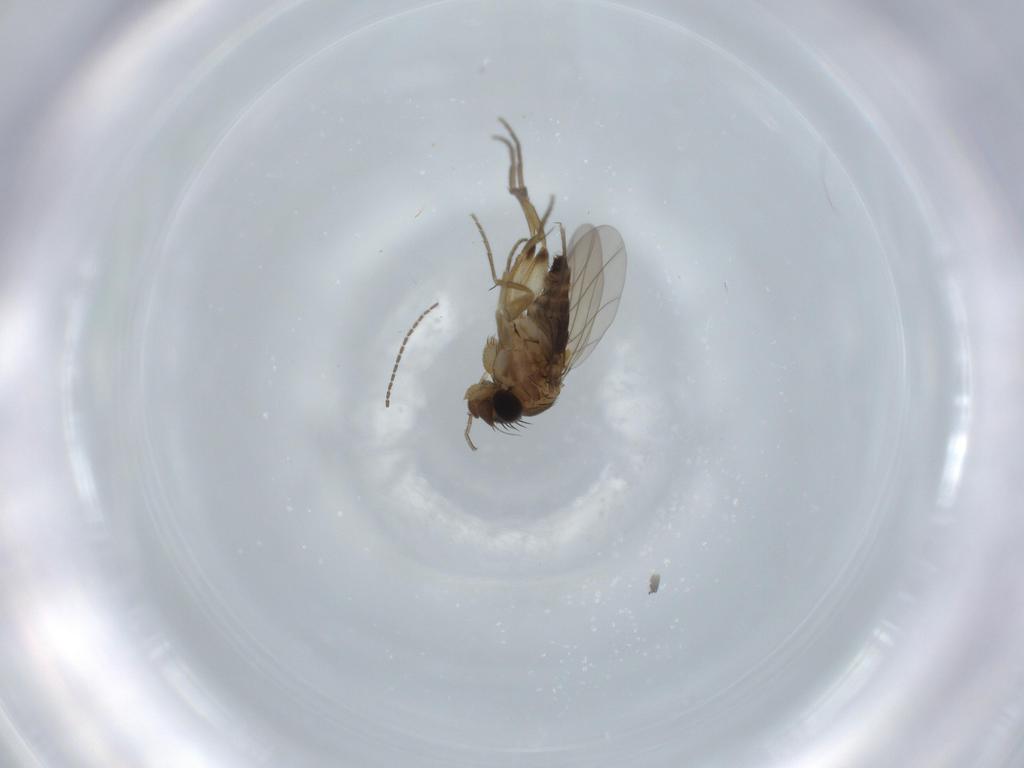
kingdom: Animalia
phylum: Arthropoda
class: Insecta
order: Diptera
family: Phoridae
